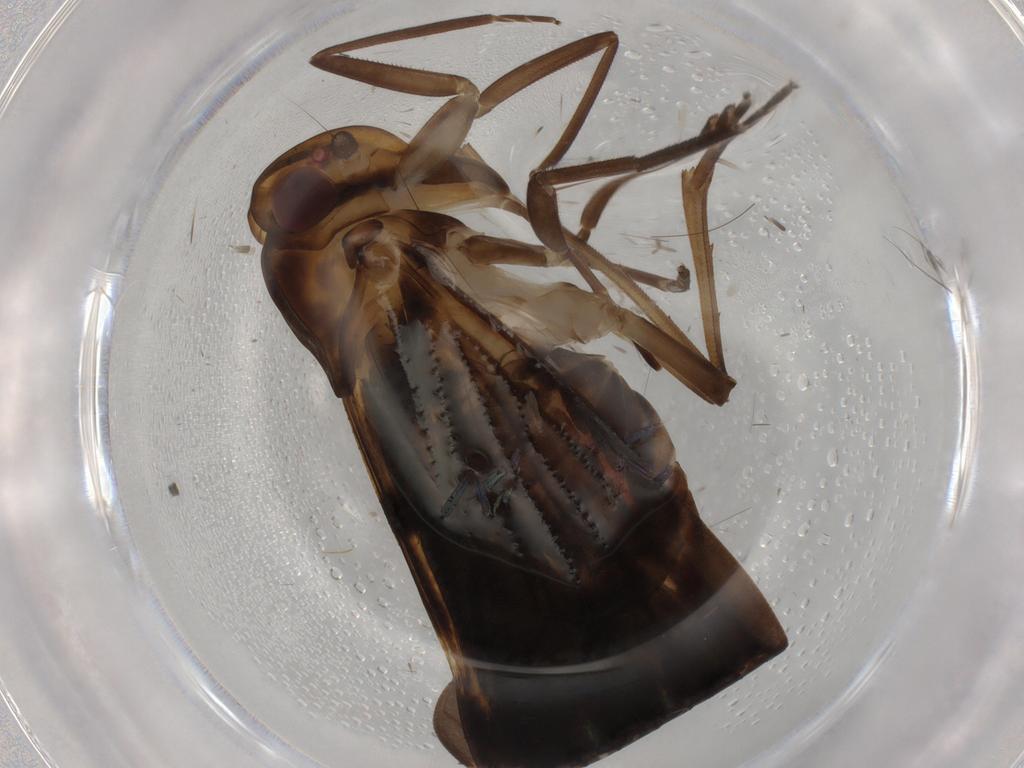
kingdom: Animalia
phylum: Arthropoda
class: Insecta
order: Hemiptera
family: Cixiidae
